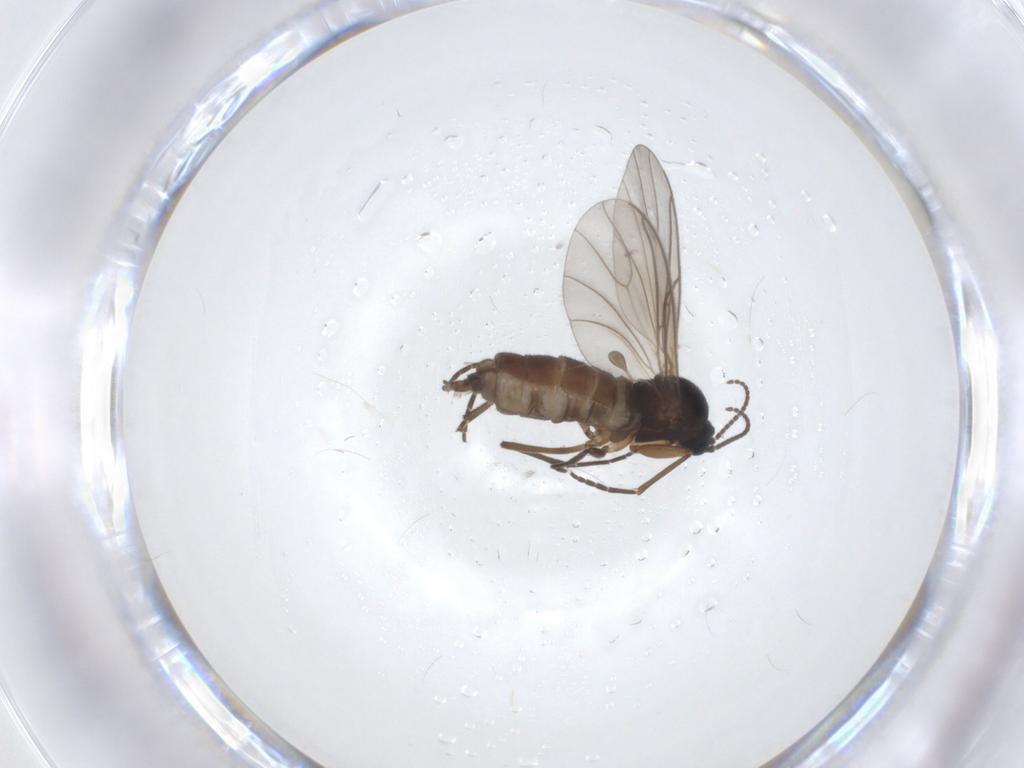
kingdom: Animalia
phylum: Arthropoda
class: Insecta
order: Diptera
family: Sciaridae
